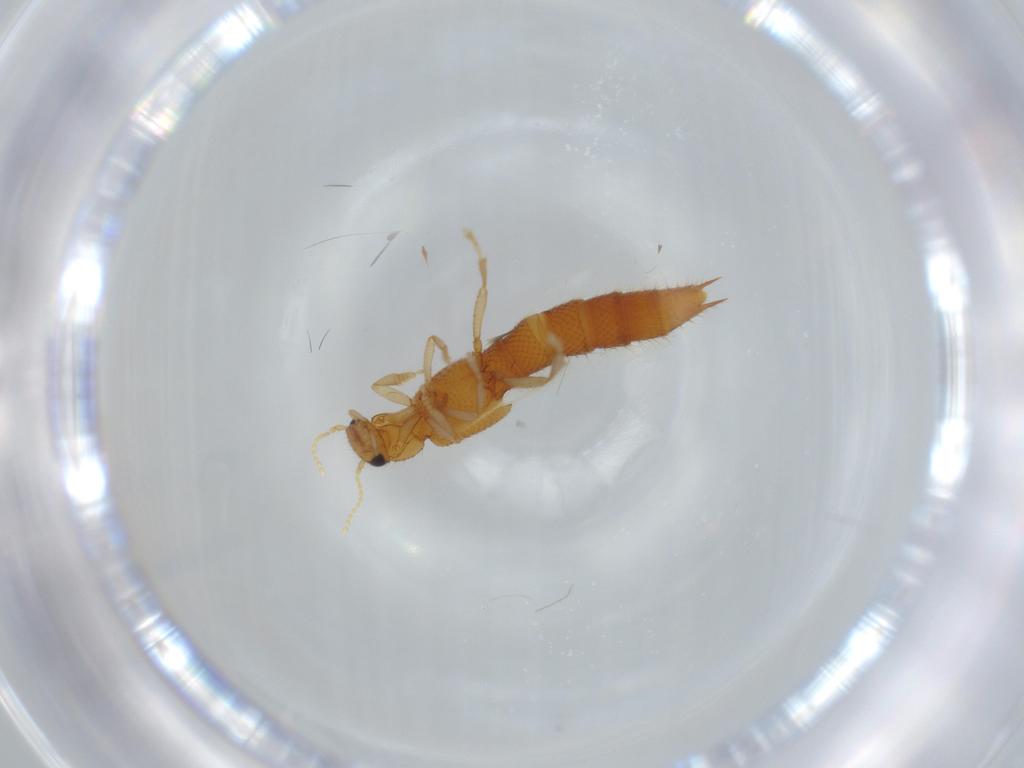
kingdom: Animalia
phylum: Arthropoda
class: Insecta
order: Coleoptera
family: Staphylinidae
